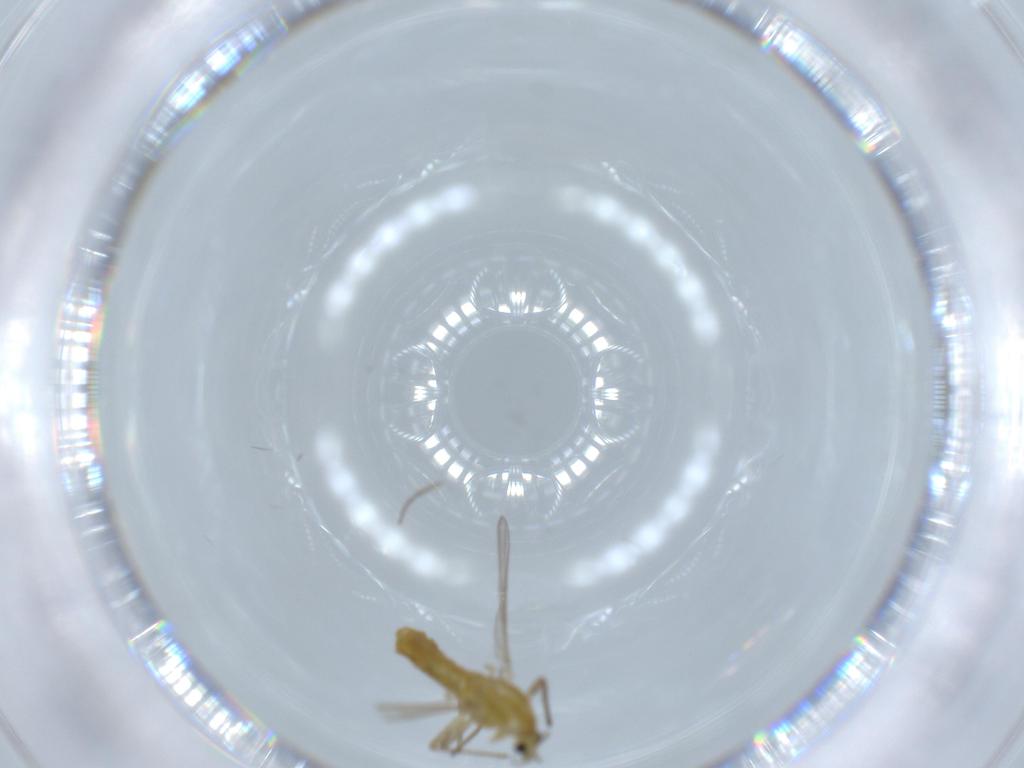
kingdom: Animalia
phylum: Arthropoda
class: Insecta
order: Diptera
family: Chironomidae
